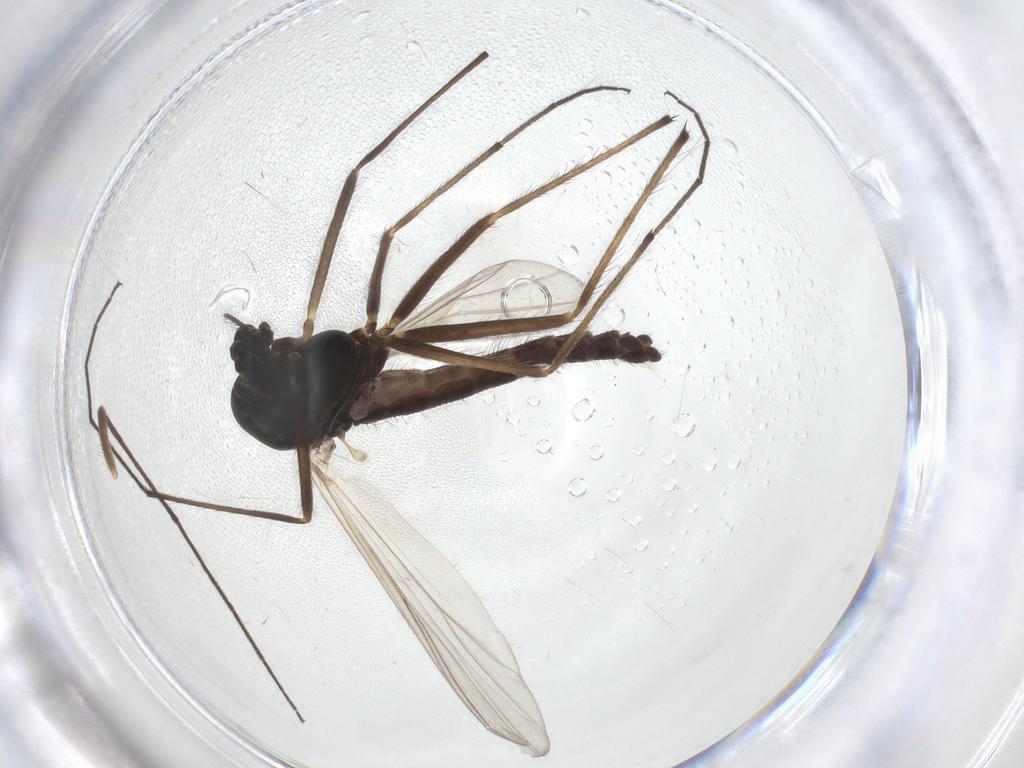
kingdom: Animalia
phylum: Arthropoda
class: Insecta
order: Diptera
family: Chironomidae
